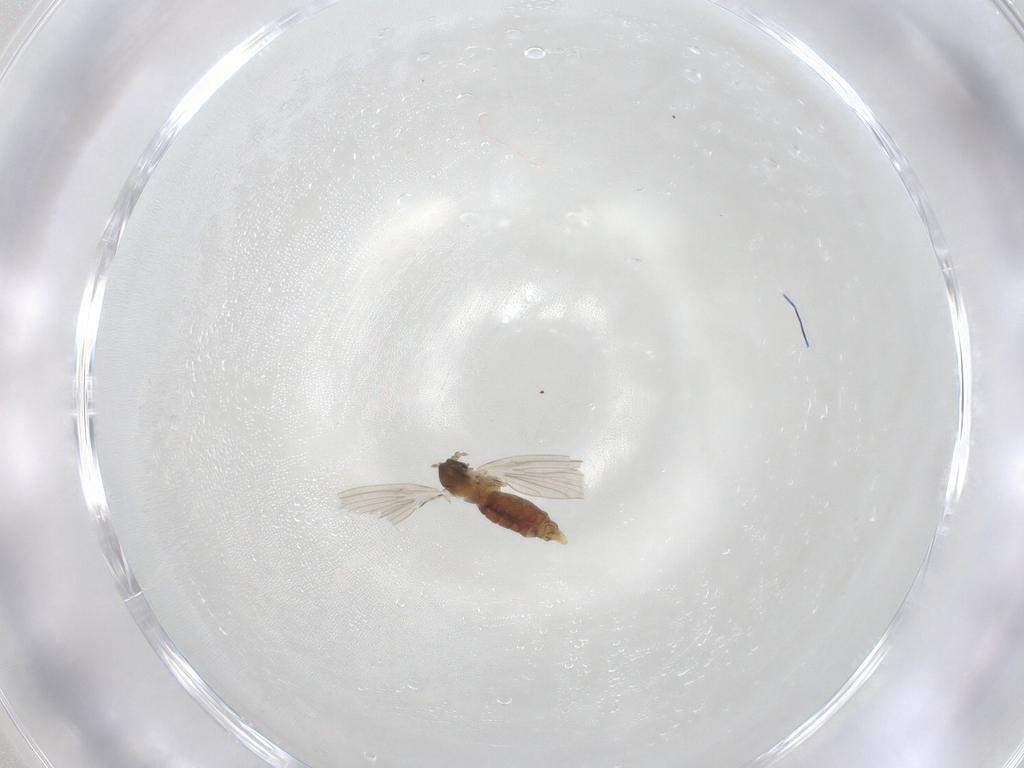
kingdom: Animalia
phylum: Arthropoda
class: Insecta
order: Diptera
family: Psychodidae
